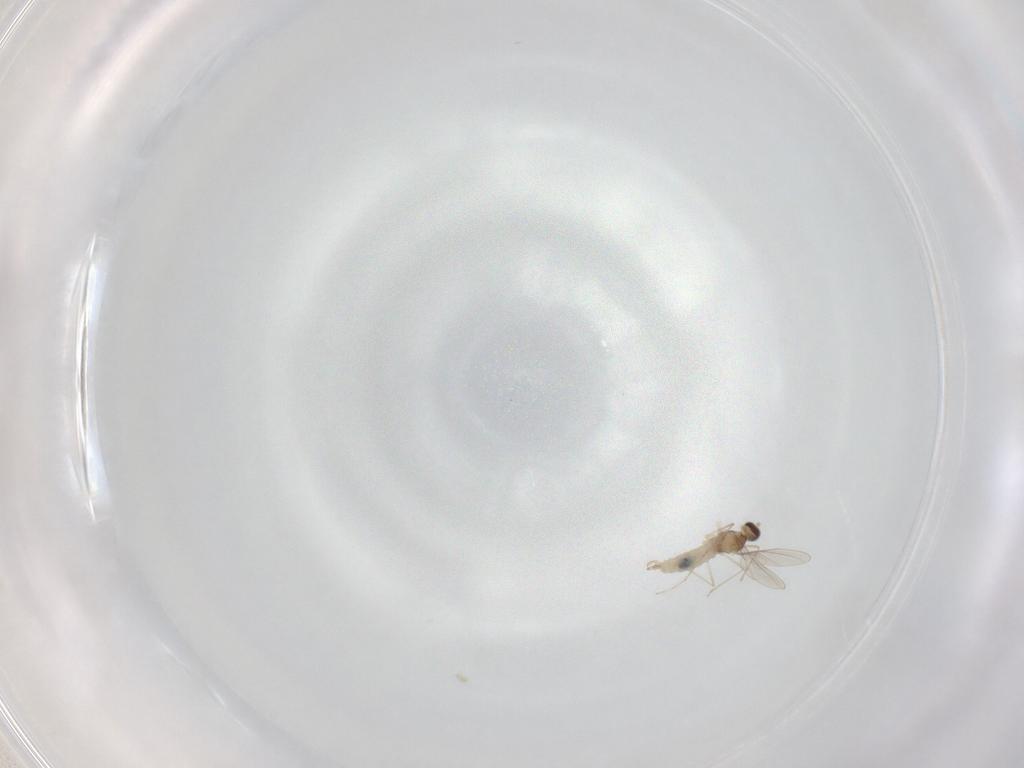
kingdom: Animalia
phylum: Arthropoda
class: Insecta
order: Diptera
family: Cecidomyiidae
